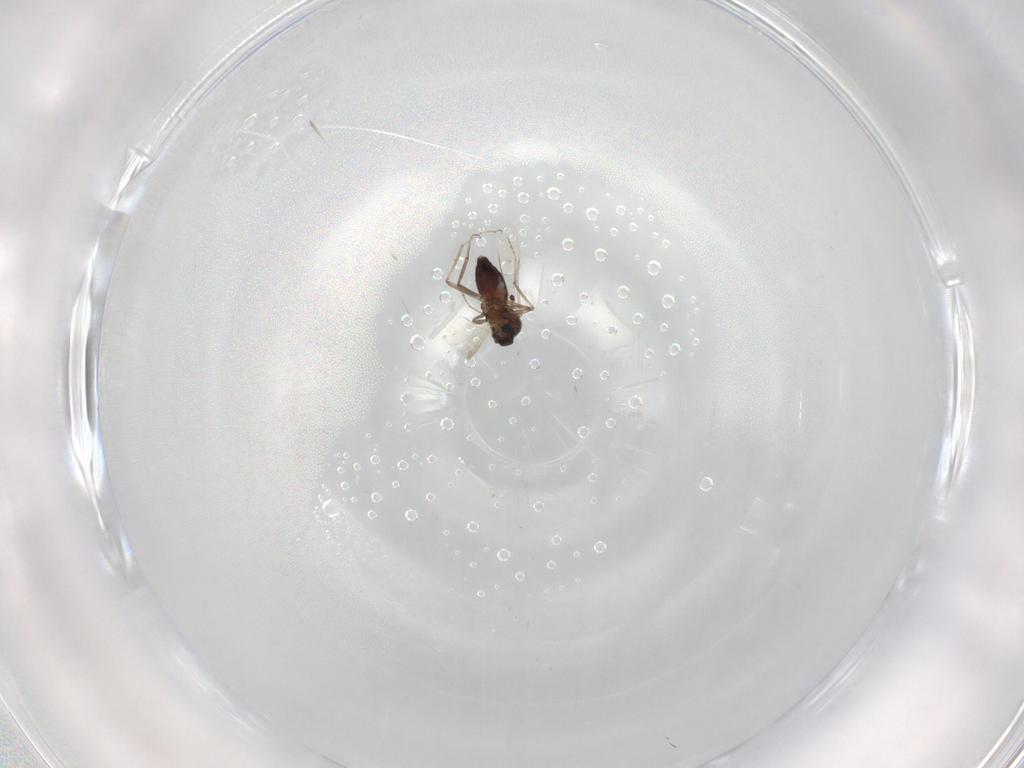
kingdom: Animalia
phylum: Arthropoda
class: Insecta
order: Diptera
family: Ceratopogonidae
